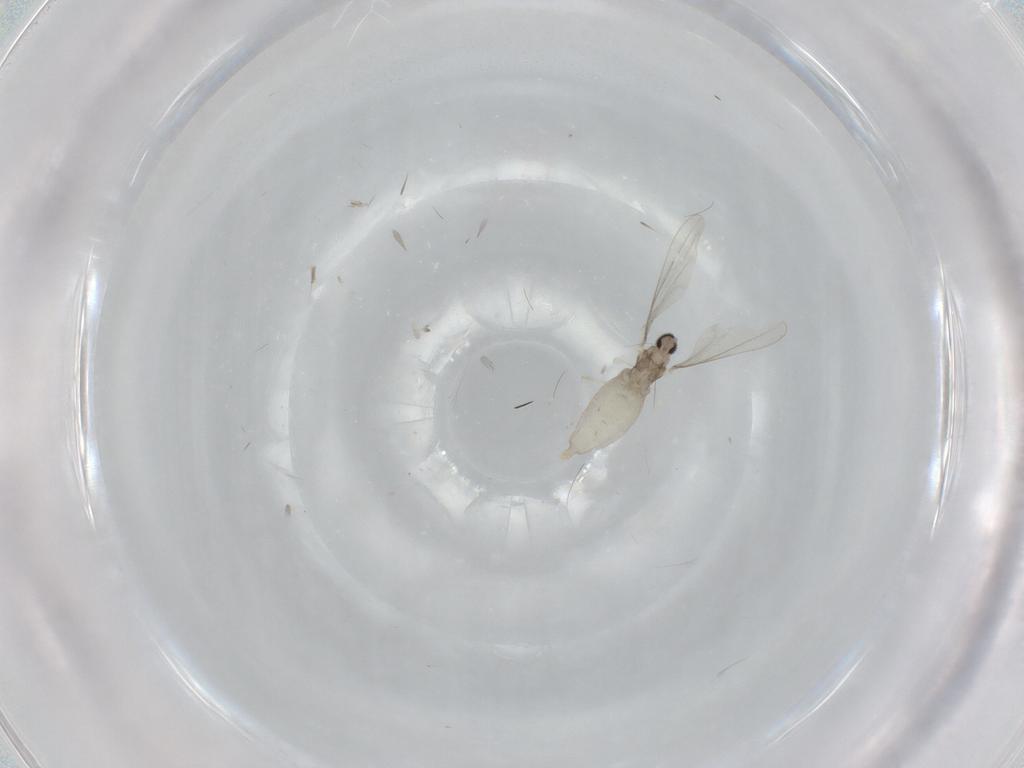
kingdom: Animalia
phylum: Arthropoda
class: Insecta
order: Diptera
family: Cecidomyiidae
